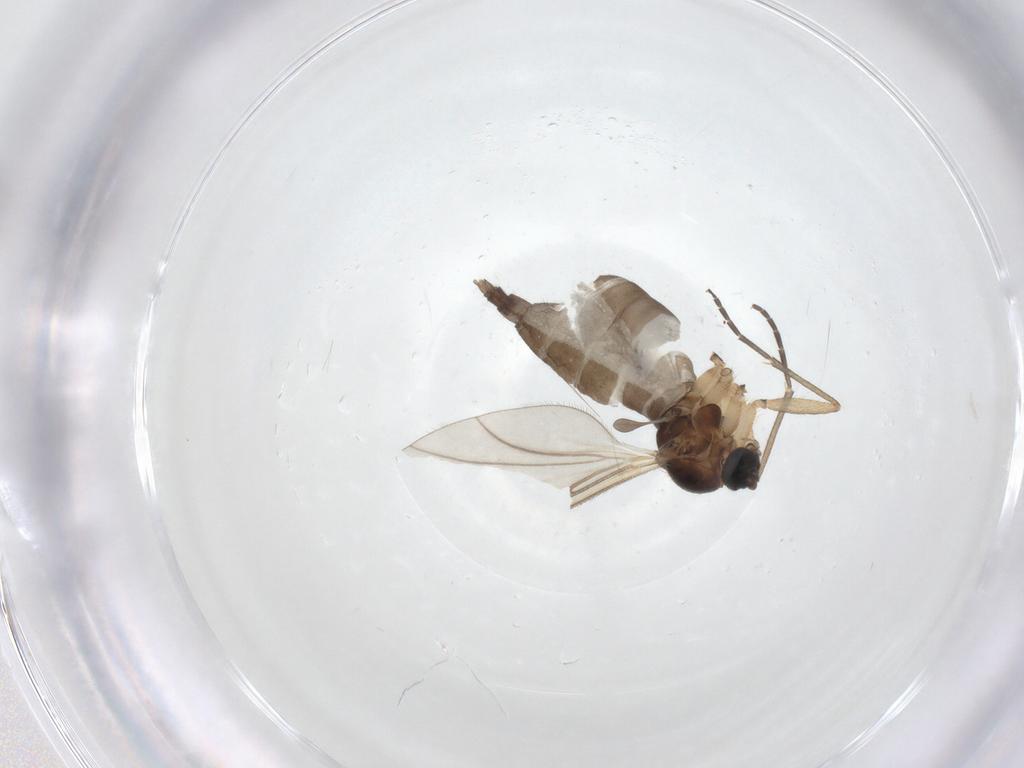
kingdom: Animalia
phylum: Arthropoda
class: Insecta
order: Diptera
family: Sciaridae
